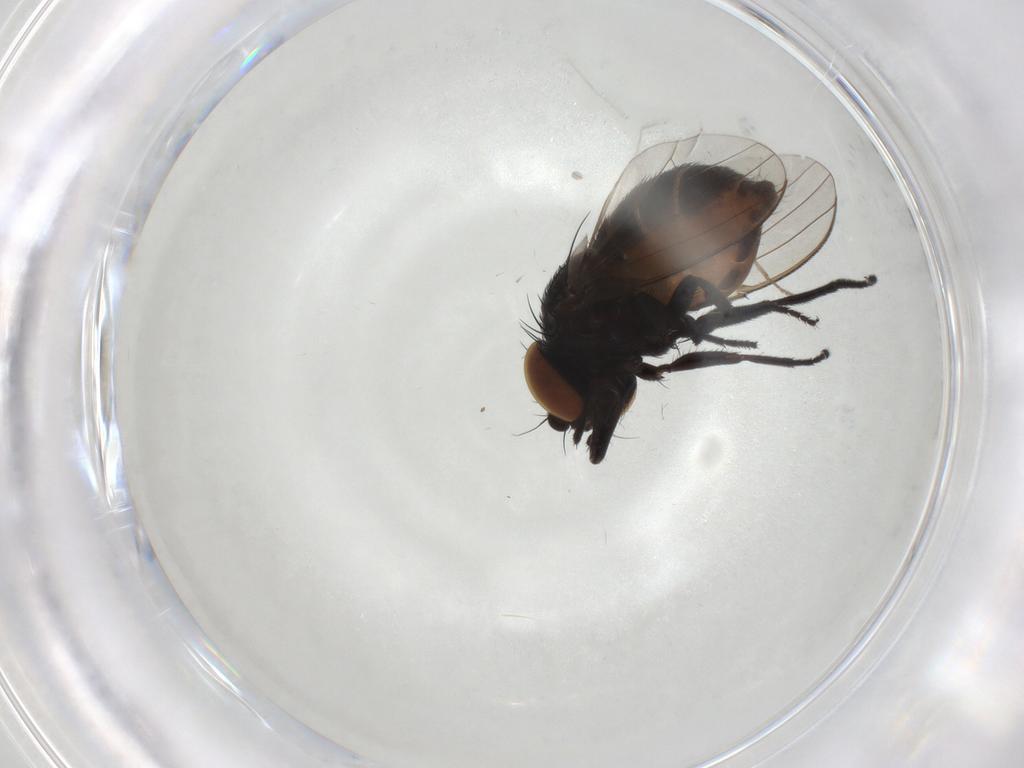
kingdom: Animalia
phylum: Arthropoda
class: Insecta
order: Diptera
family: Milichiidae
